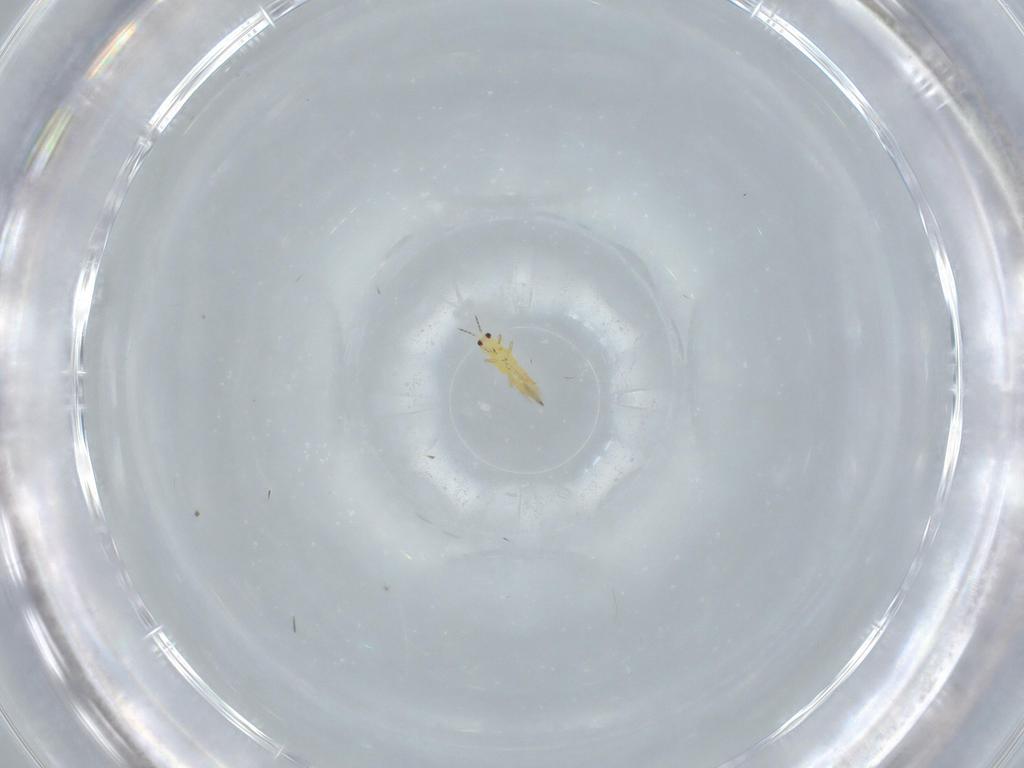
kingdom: Animalia
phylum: Arthropoda
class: Insecta
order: Thysanoptera
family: Thripidae
